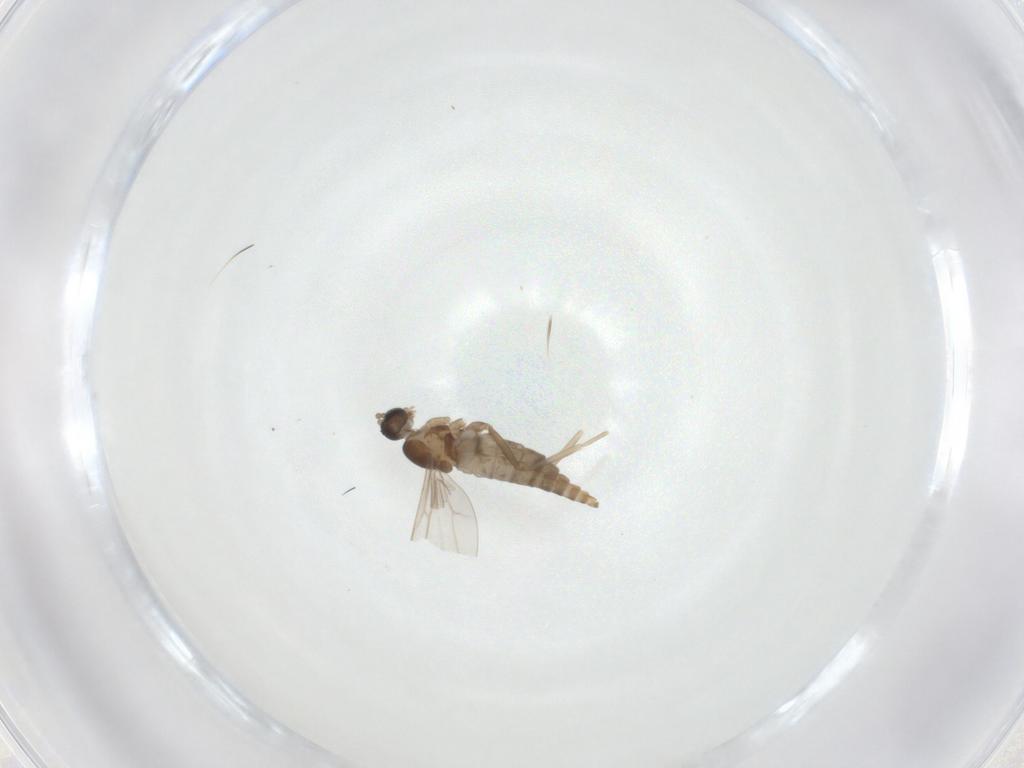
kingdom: Animalia
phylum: Arthropoda
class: Insecta
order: Diptera
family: Cecidomyiidae
